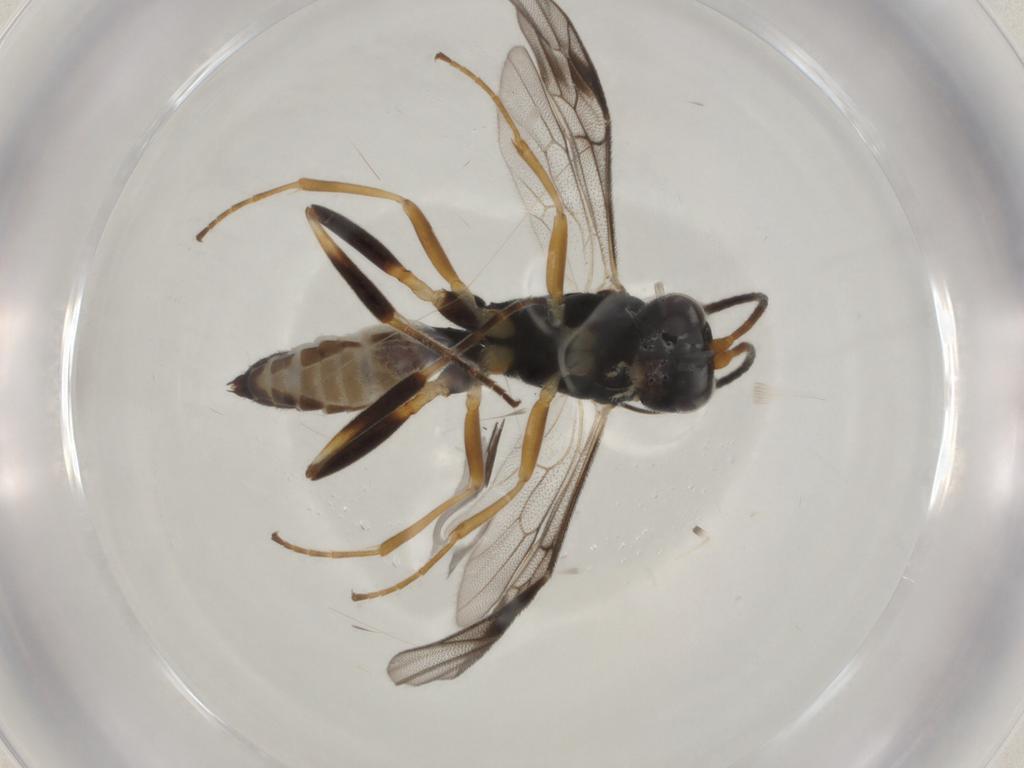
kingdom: Animalia
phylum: Arthropoda
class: Insecta
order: Hymenoptera
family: Braconidae
